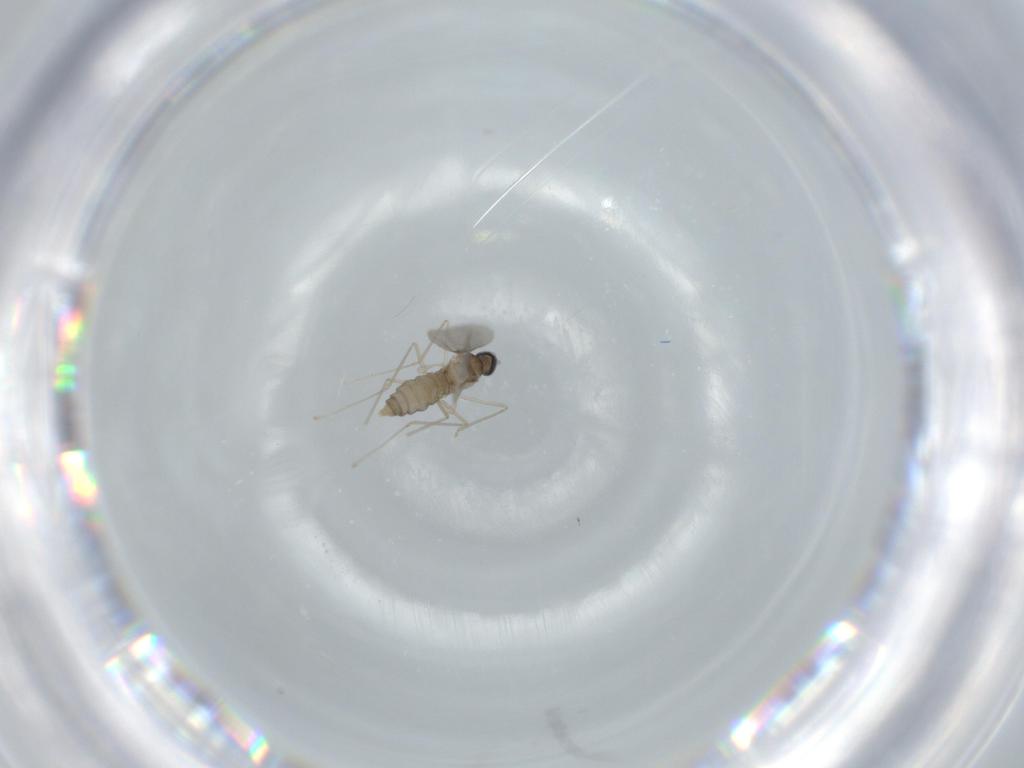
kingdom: Animalia
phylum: Arthropoda
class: Insecta
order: Diptera
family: Cecidomyiidae
